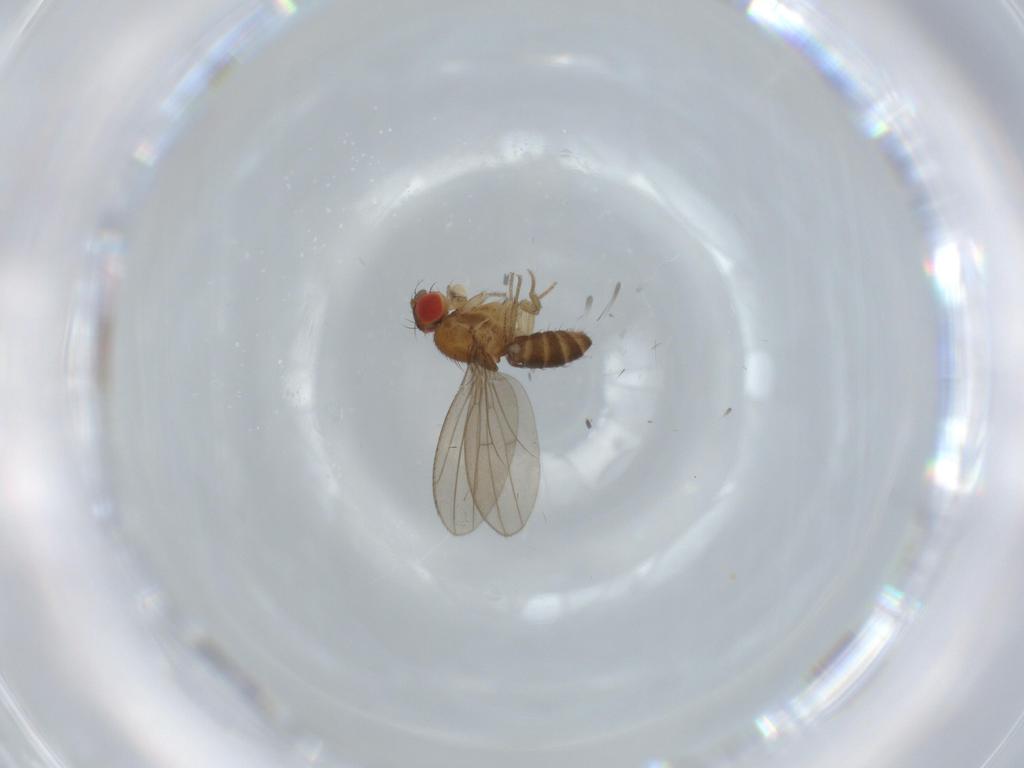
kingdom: Animalia
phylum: Arthropoda
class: Insecta
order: Diptera
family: Drosophilidae
